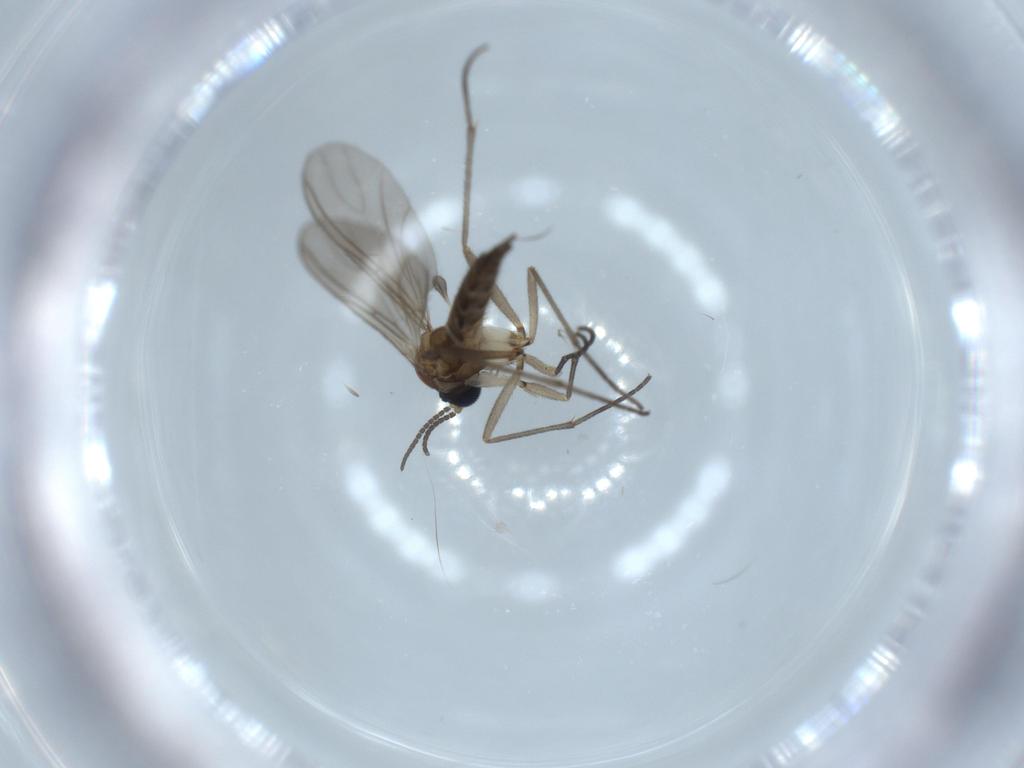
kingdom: Animalia
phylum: Arthropoda
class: Insecta
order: Diptera
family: Sciaridae
